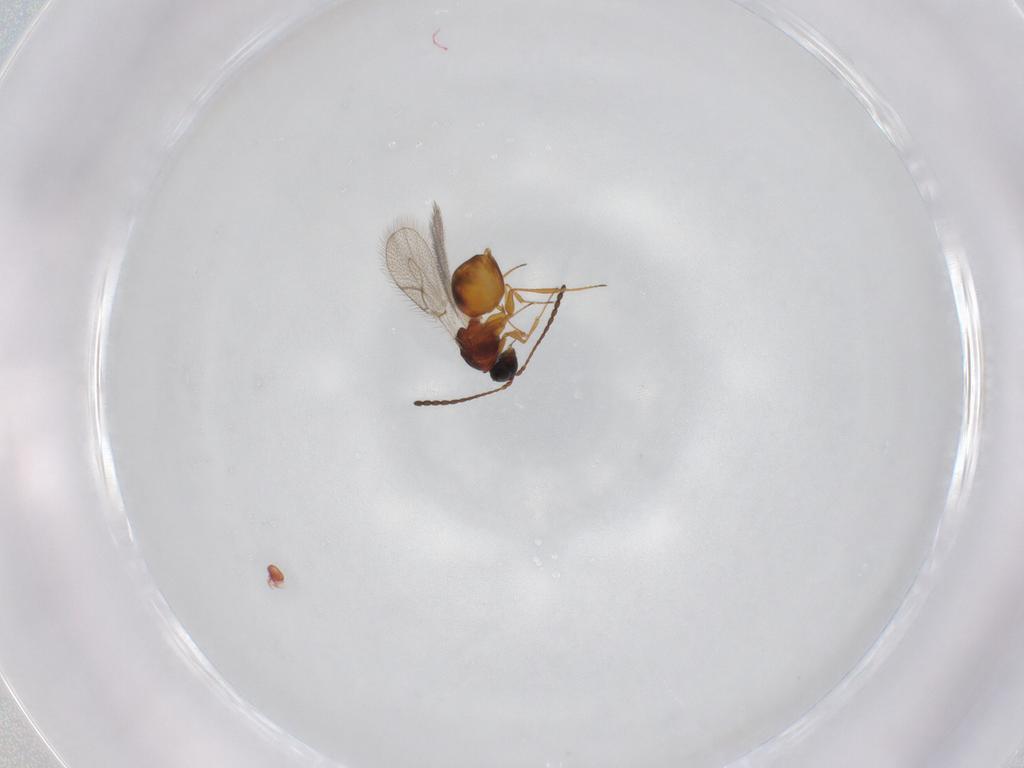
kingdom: Animalia
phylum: Arthropoda
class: Insecta
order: Hymenoptera
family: Figitidae
